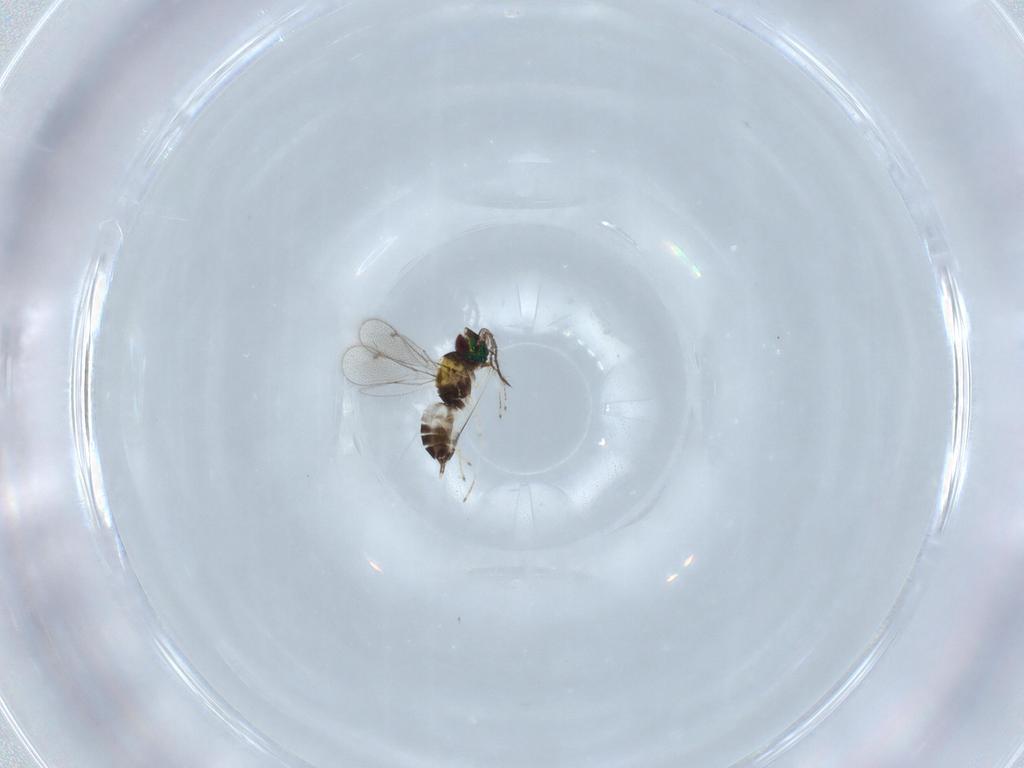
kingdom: Animalia
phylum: Arthropoda
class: Insecta
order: Hymenoptera
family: Eulophidae
